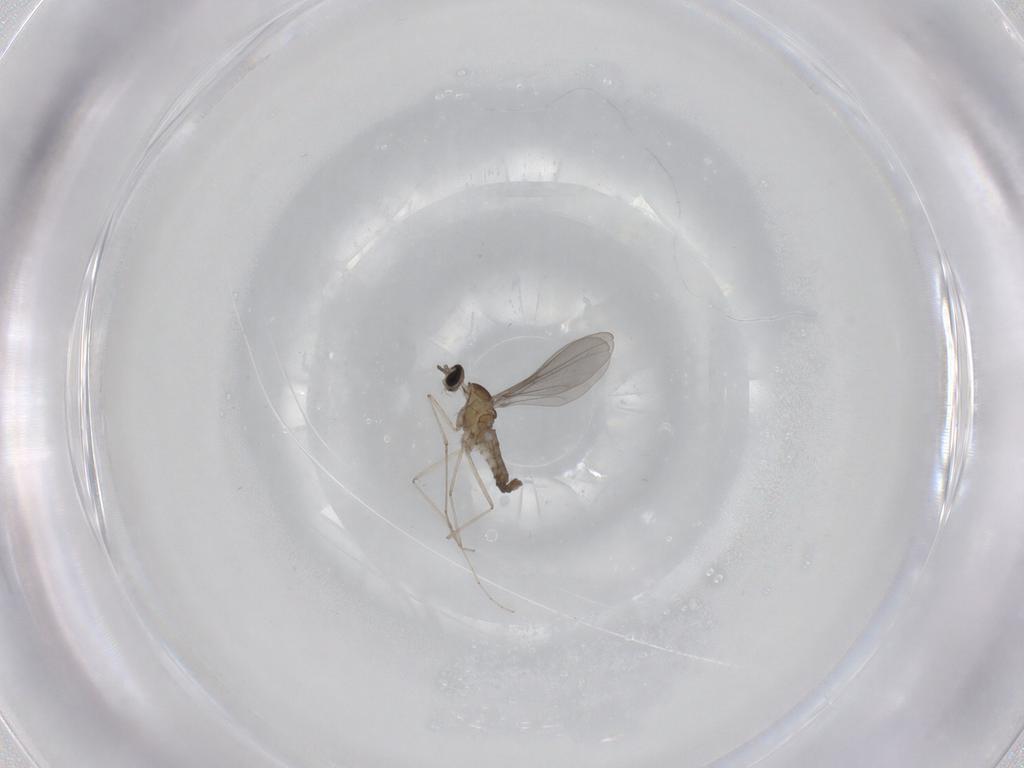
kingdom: Animalia
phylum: Arthropoda
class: Insecta
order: Diptera
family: Cecidomyiidae
